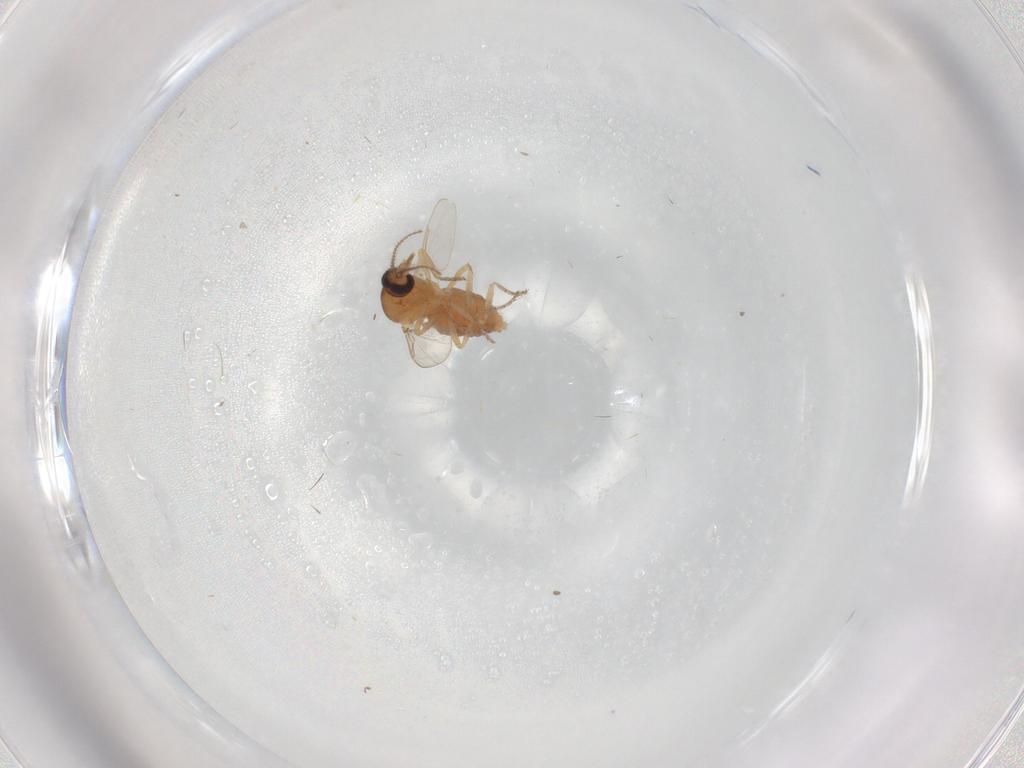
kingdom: Animalia
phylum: Arthropoda
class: Insecta
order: Diptera
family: Ceratopogonidae
